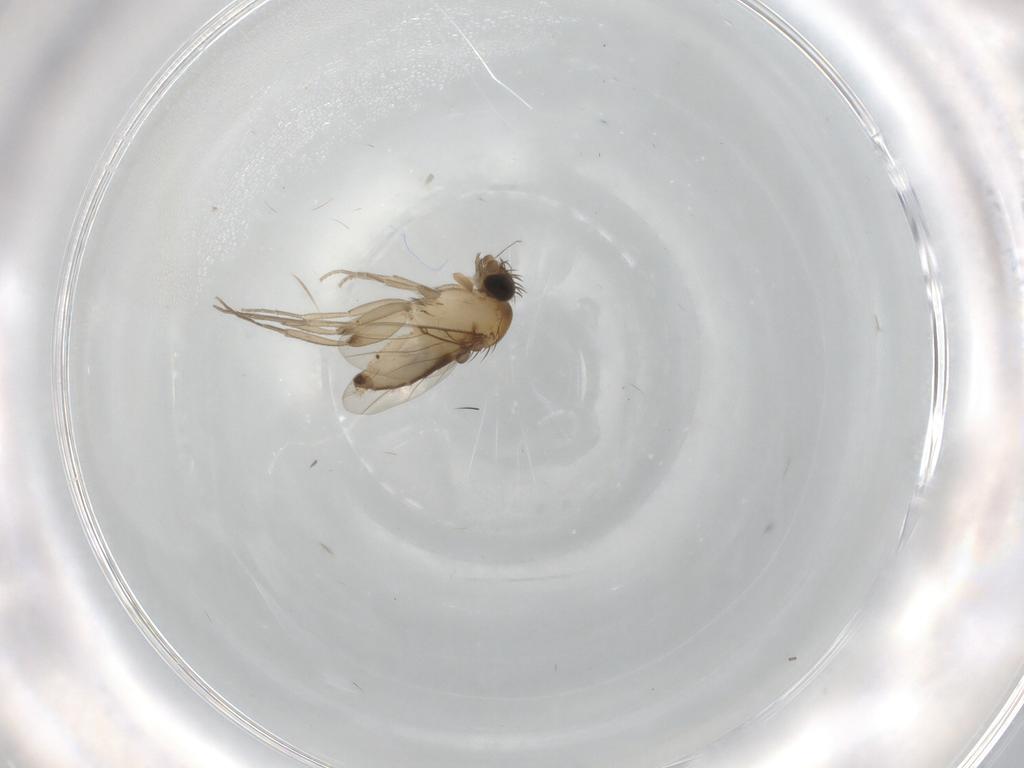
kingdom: Animalia
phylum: Arthropoda
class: Insecta
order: Diptera
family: Phoridae
